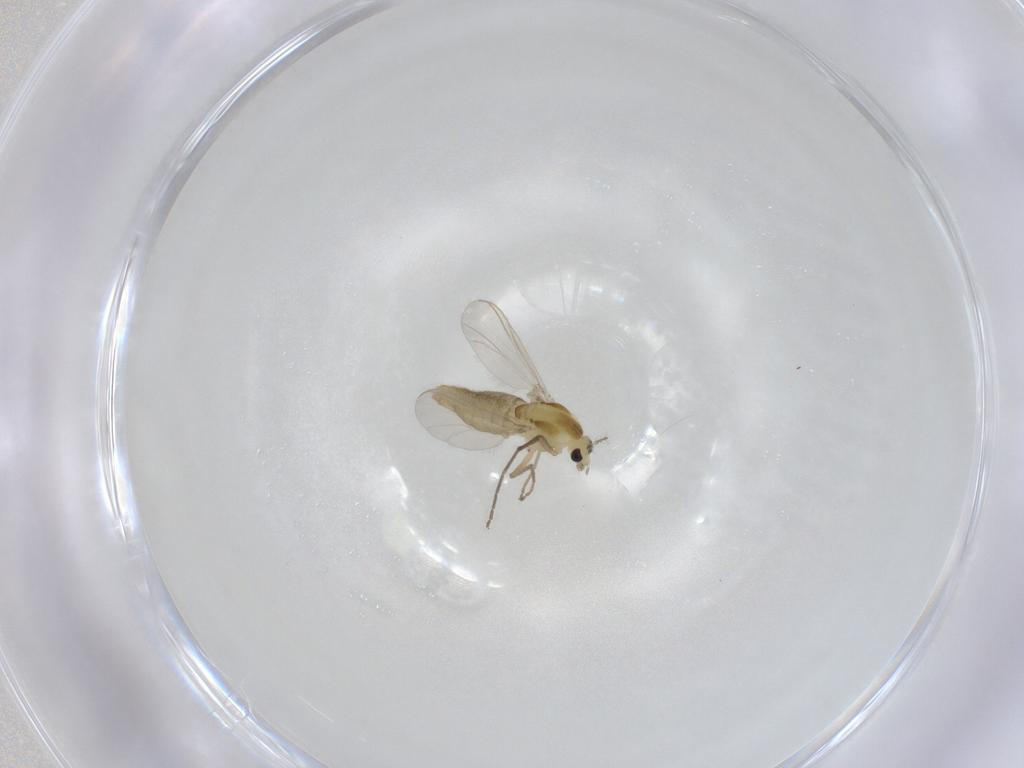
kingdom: Animalia
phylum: Arthropoda
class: Insecta
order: Diptera
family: Chironomidae
